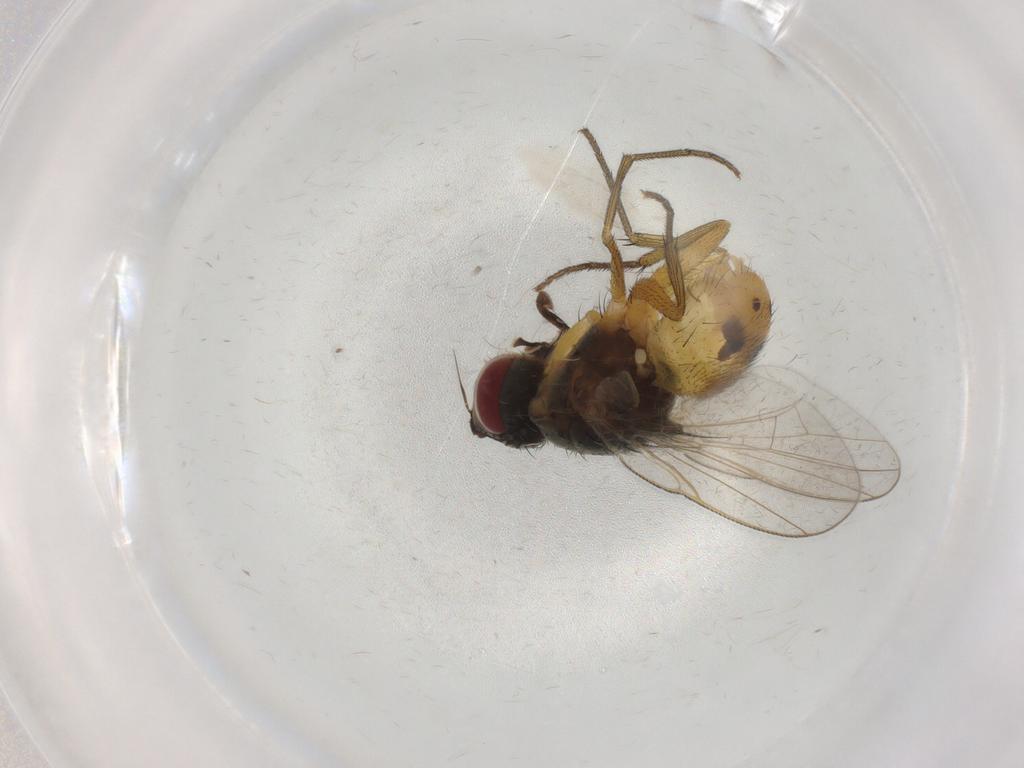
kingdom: Animalia
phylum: Arthropoda
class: Insecta
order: Diptera
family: Muscidae
